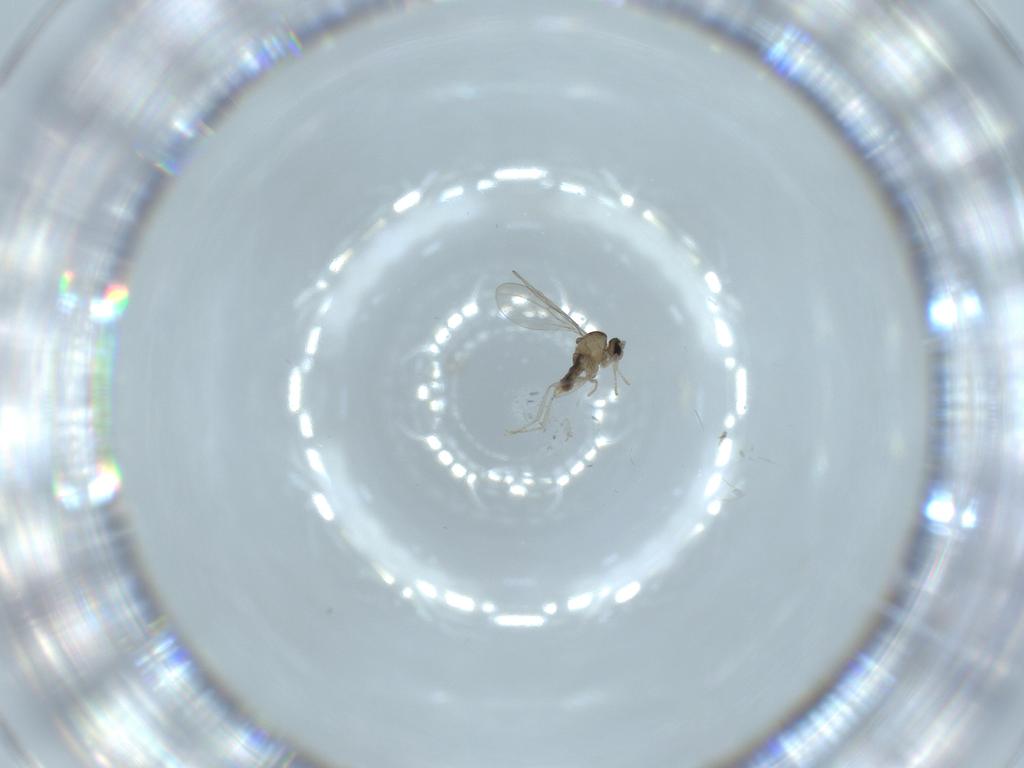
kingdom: Animalia
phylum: Arthropoda
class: Insecta
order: Diptera
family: Cecidomyiidae
